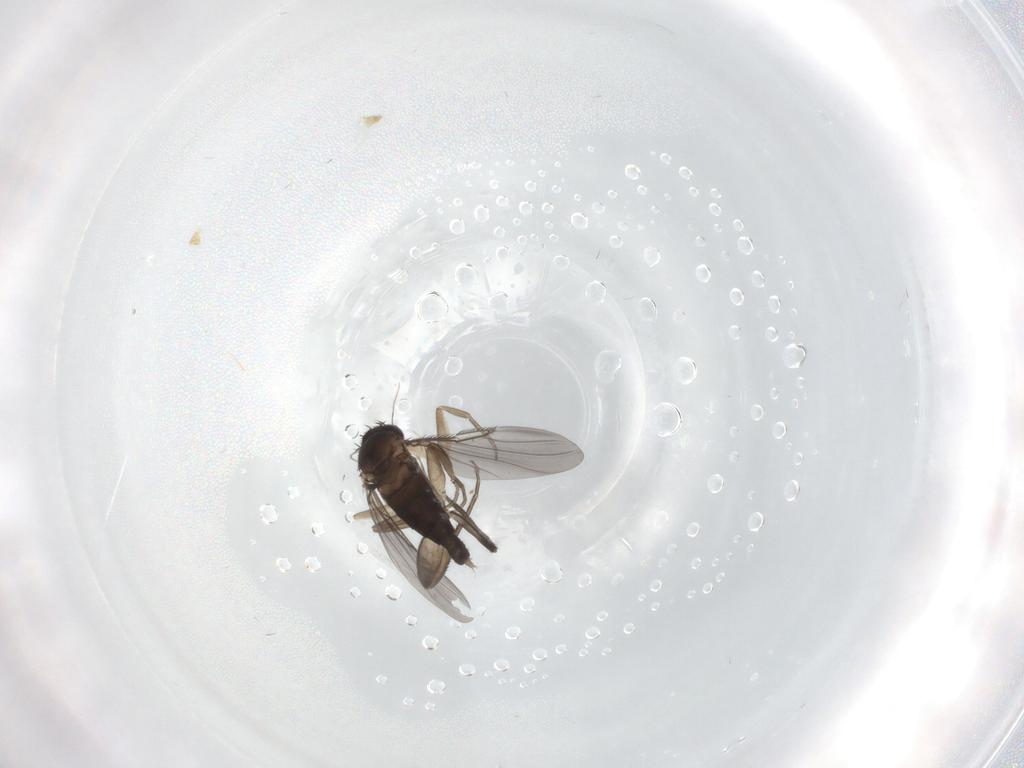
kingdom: Animalia
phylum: Arthropoda
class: Insecta
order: Diptera
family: Phoridae
